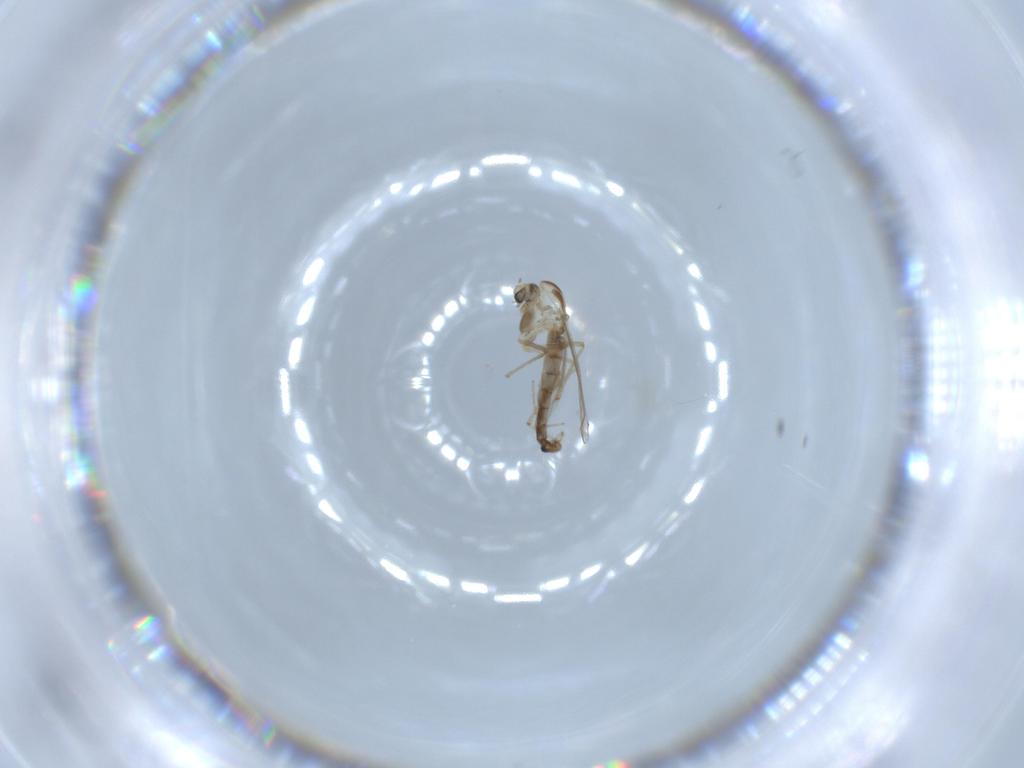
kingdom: Animalia
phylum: Arthropoda
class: Insecta
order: Diptera
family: Chironomidae
